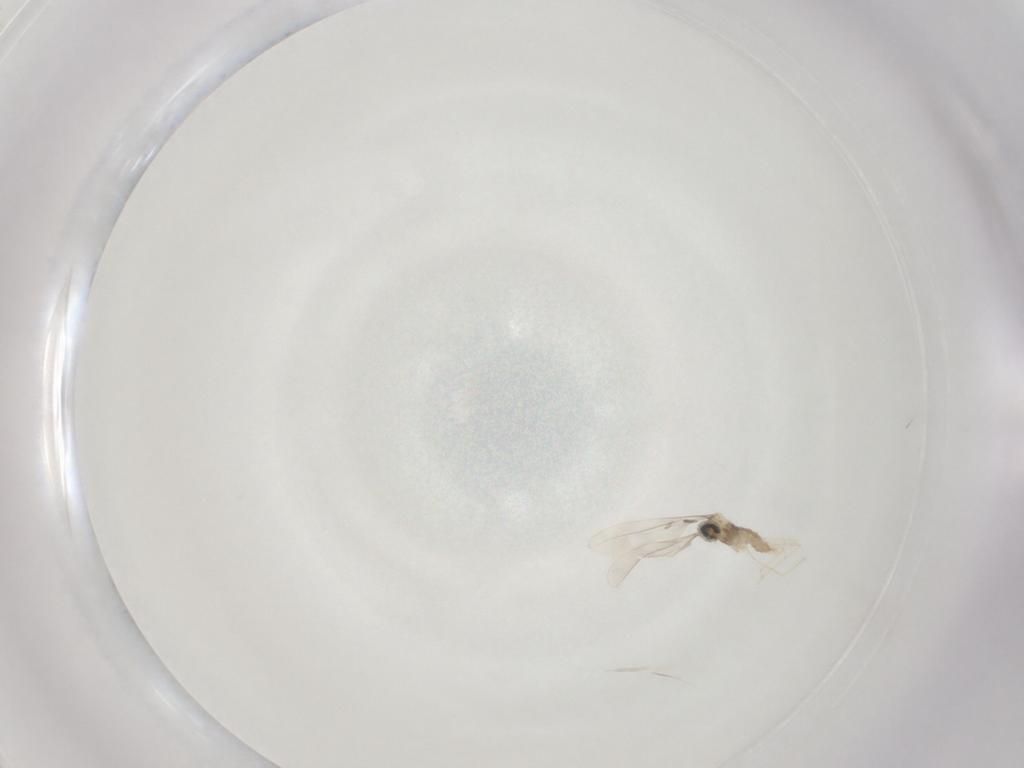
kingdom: Animalia
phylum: Arthropoda
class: Insecta
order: Diptera
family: Cecidomyiidae
